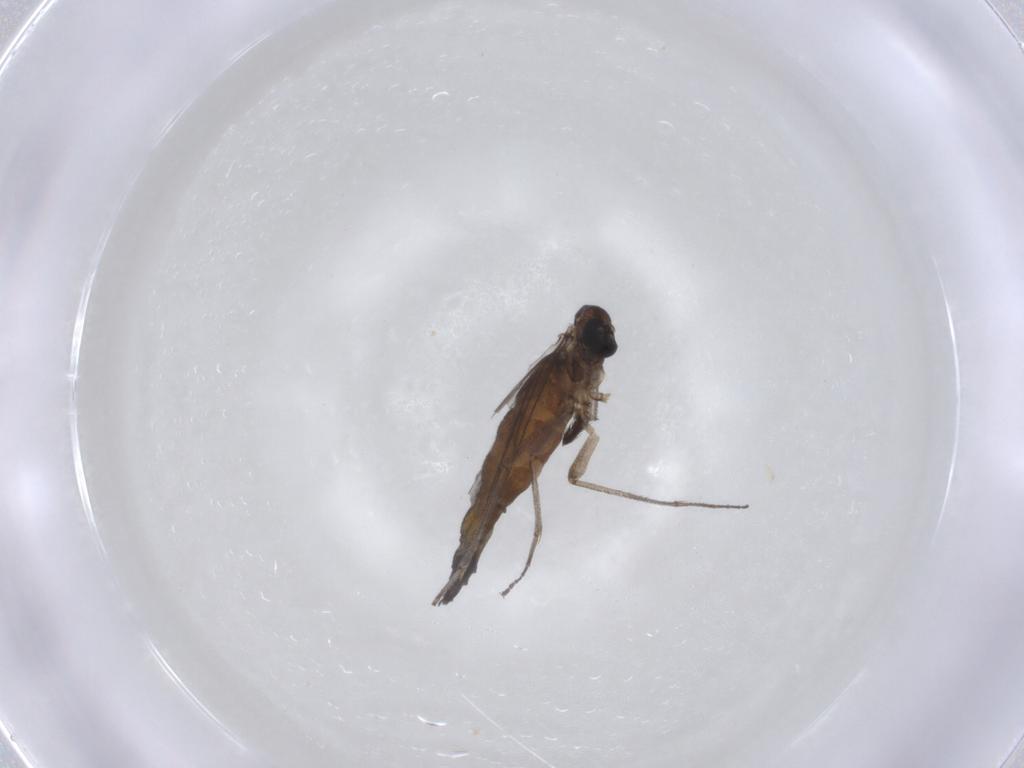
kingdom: Animalia
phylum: Arthropoda
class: Insecta
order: Diptera
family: Sciaridae
